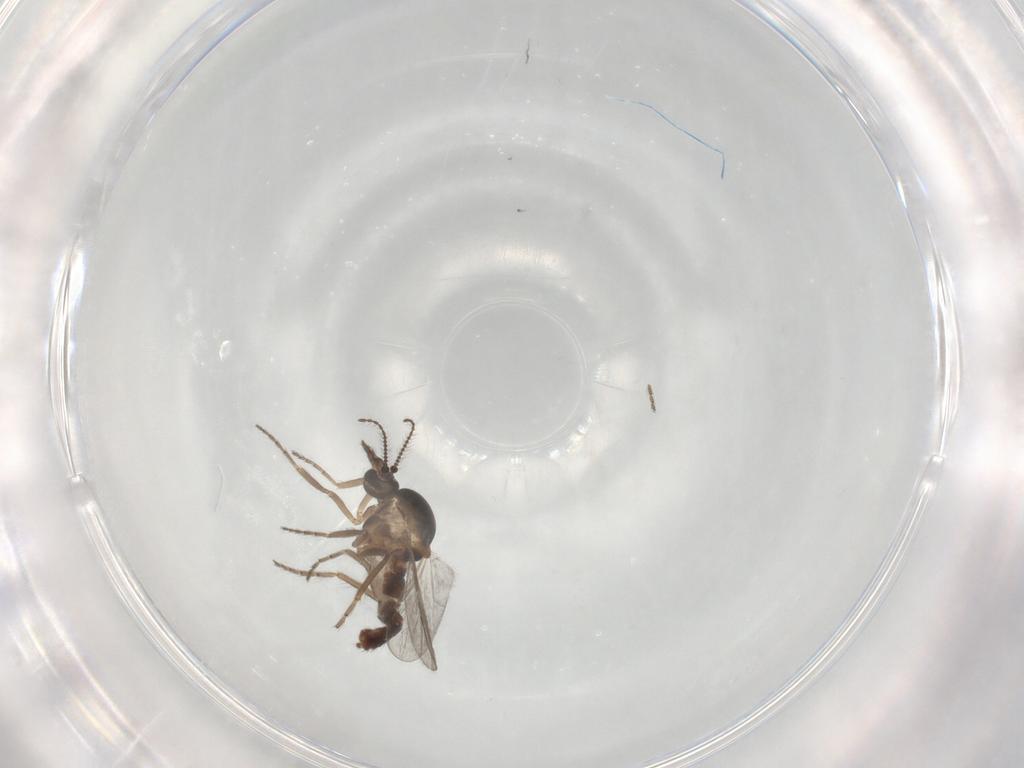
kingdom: Animalia
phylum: Arthropoda
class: Insecta
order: Diptera
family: Ceratopogonidae
